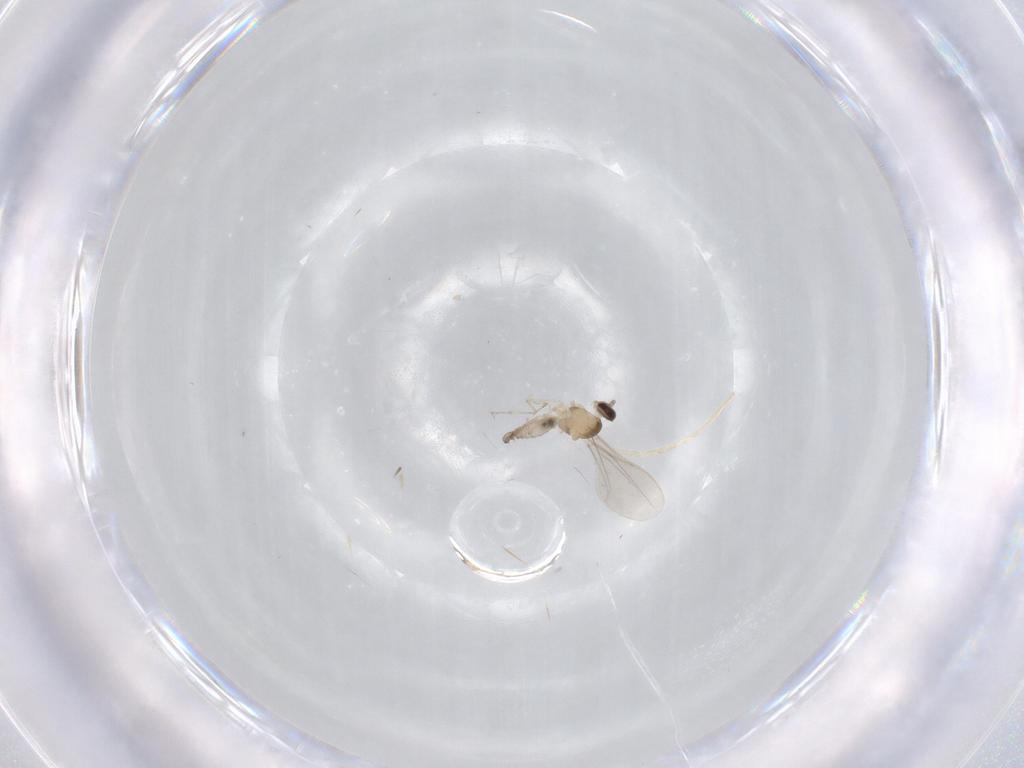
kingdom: Animalia
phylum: Arthropoda
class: Insecta
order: Diptera
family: Cecidomyiidae
